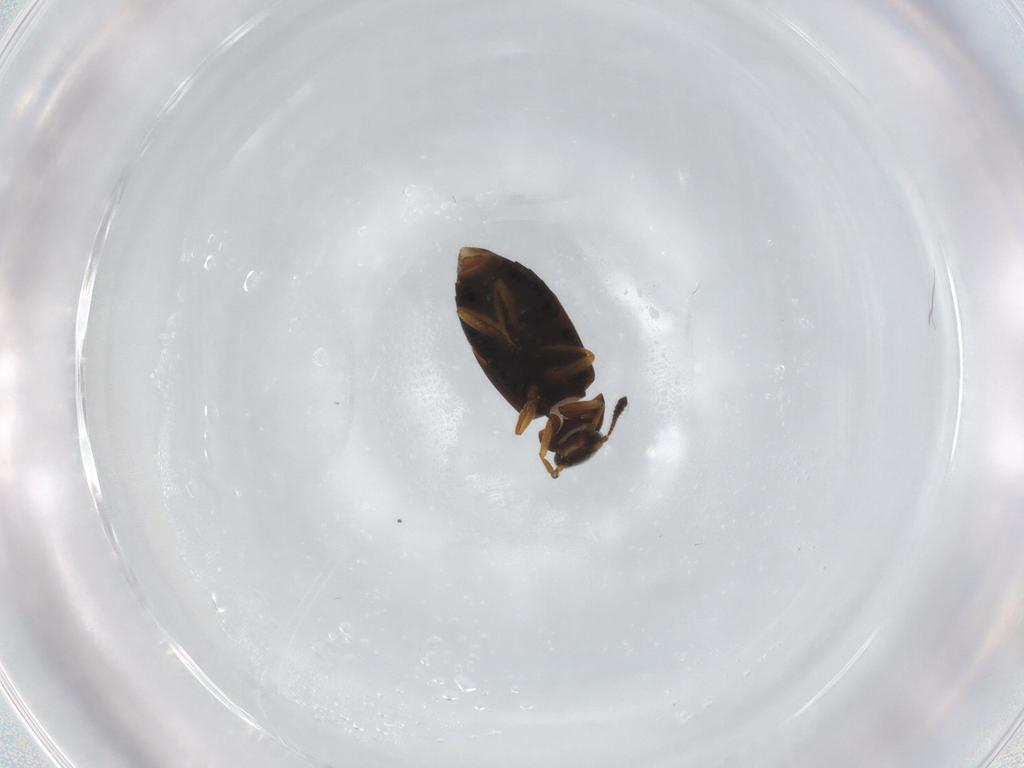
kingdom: Animalia
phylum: Arthropoda
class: Insecta
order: Coleoptera
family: Staphylinidae
